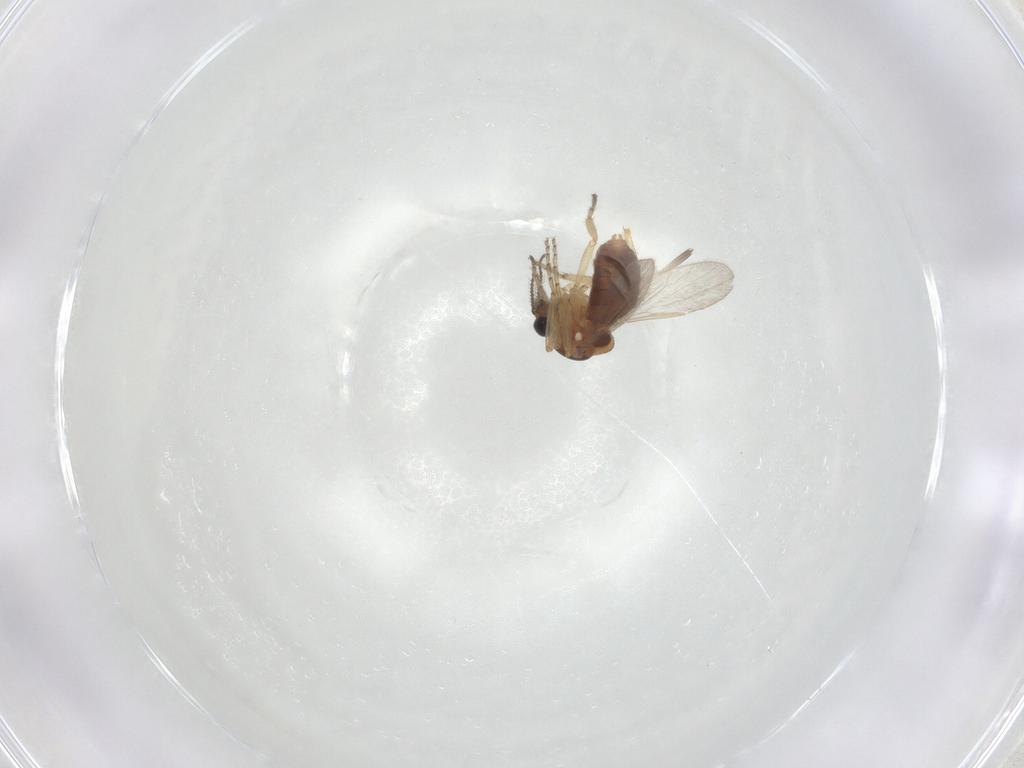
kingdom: Animalia
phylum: Arthropoda
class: Insecta
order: Diptera
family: Ceratopogonidae
